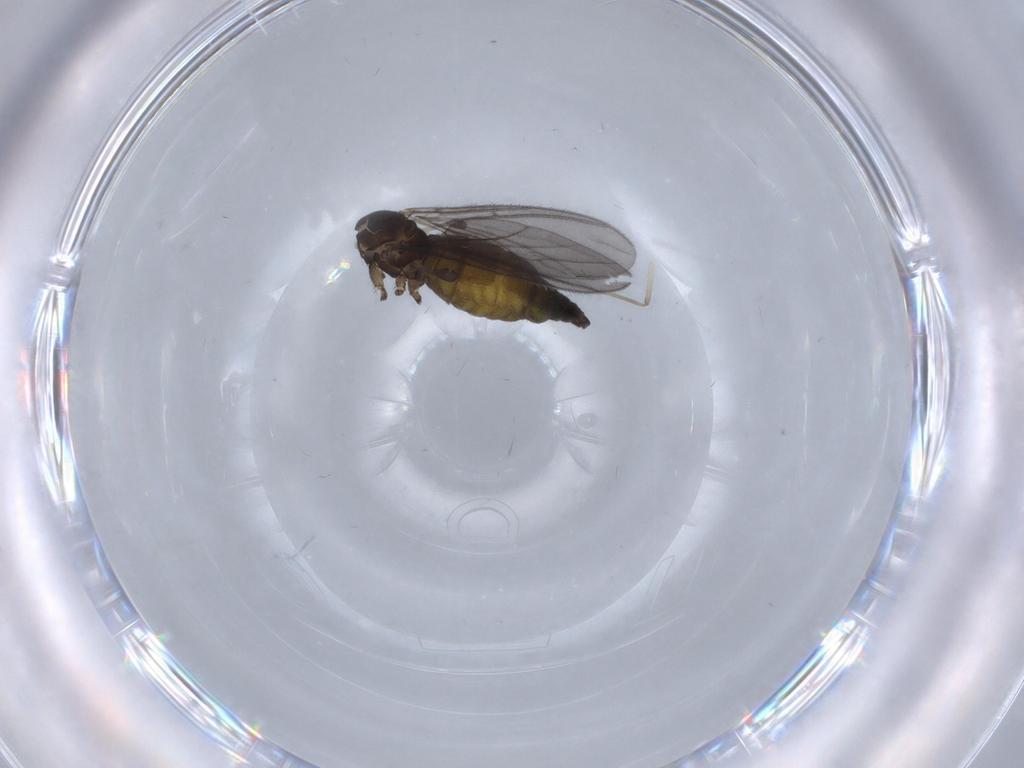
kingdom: Animalia
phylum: Arthropoda
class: Insecta
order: Diptera
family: Sciaridae
